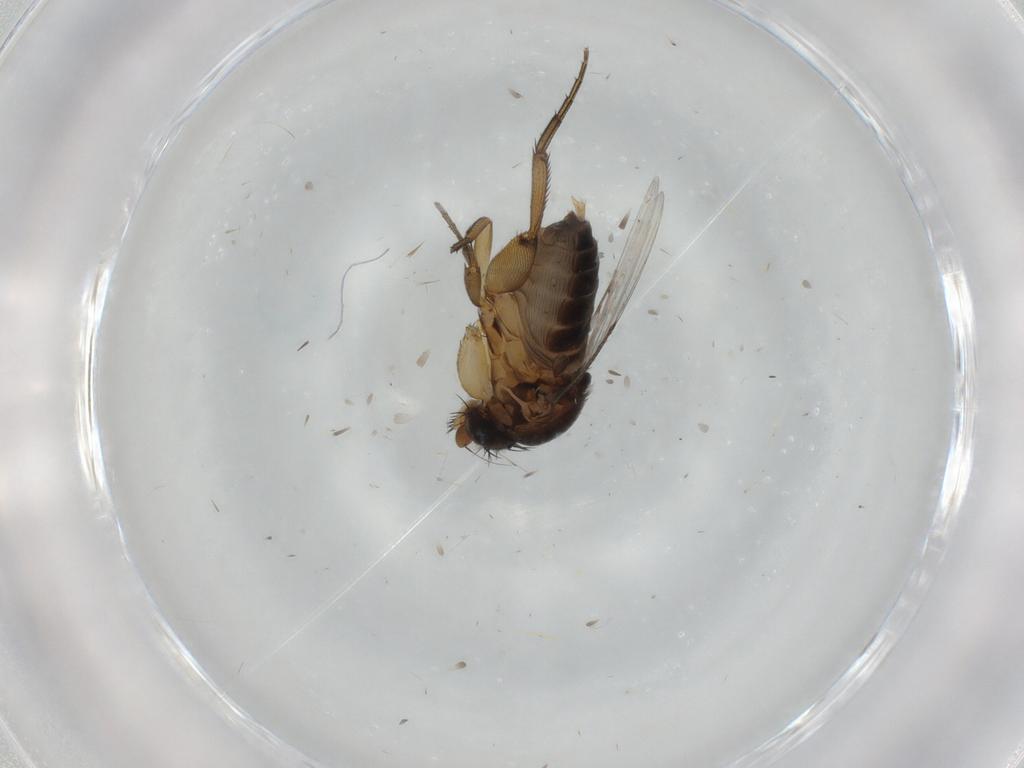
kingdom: Animalia
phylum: Arthropoda
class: Insecta
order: Diptera
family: Phoridae
